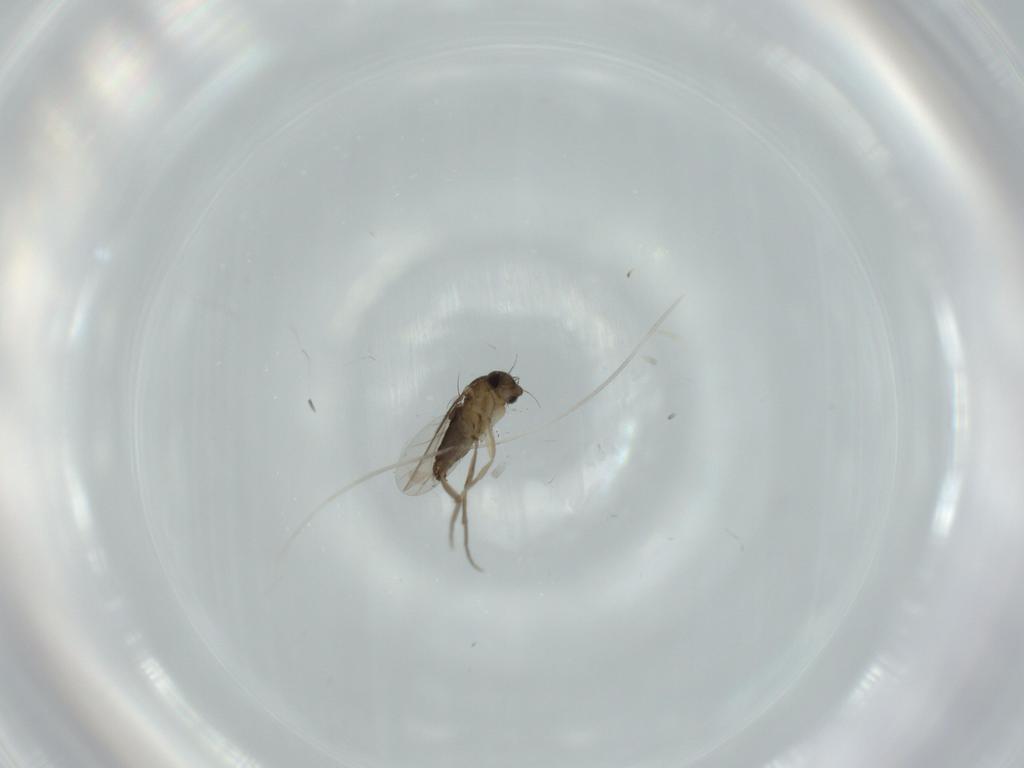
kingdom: Animalia
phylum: Arthropoda
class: Insecta
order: Diptera
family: Phoridae
